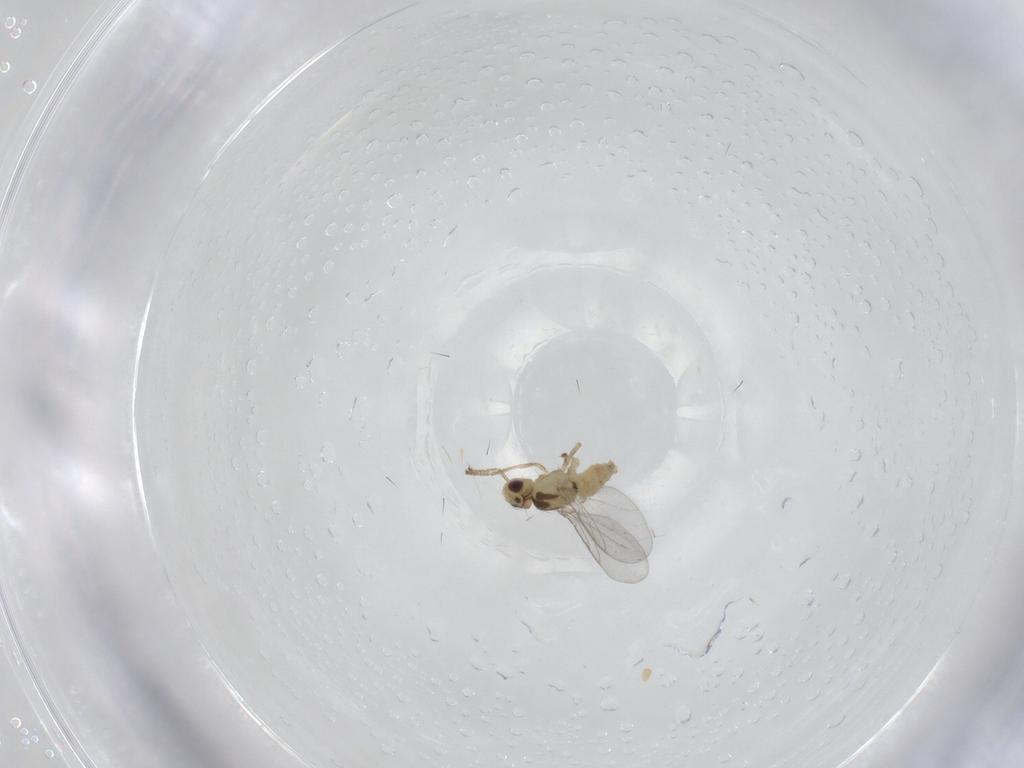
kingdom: Animalia
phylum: Arthropoda
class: Insecta
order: Diptera
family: Agromyzidae
